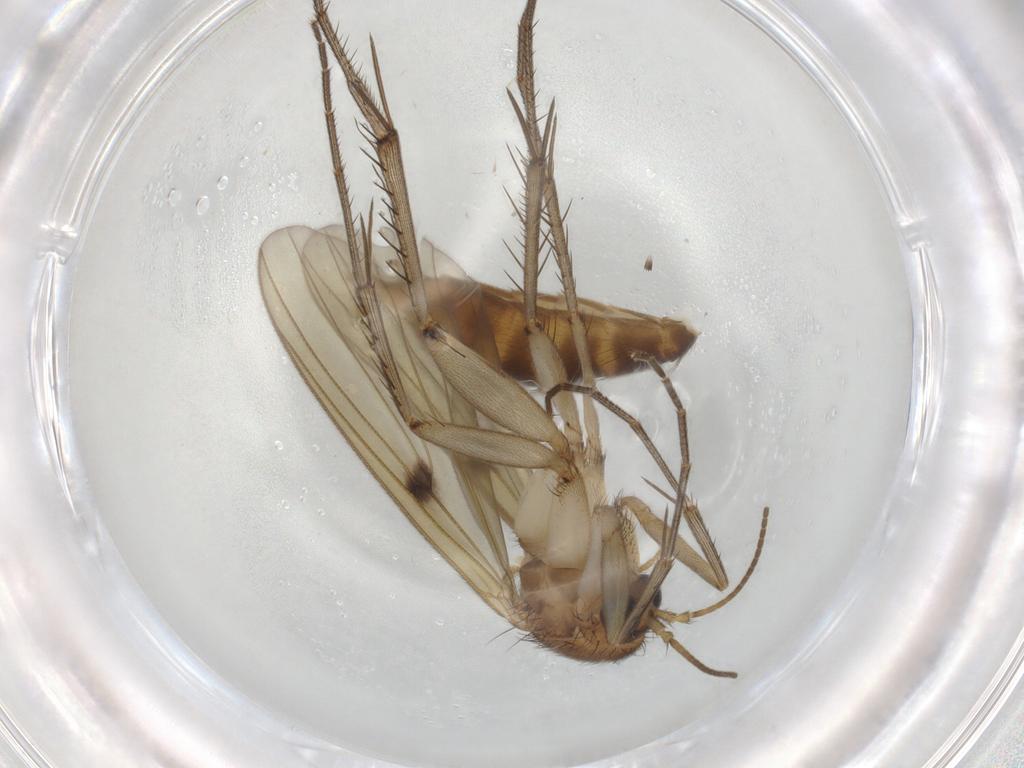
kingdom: Animalia
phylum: Arthropoda
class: Insecta
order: Diptera
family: Mycetophilidae
